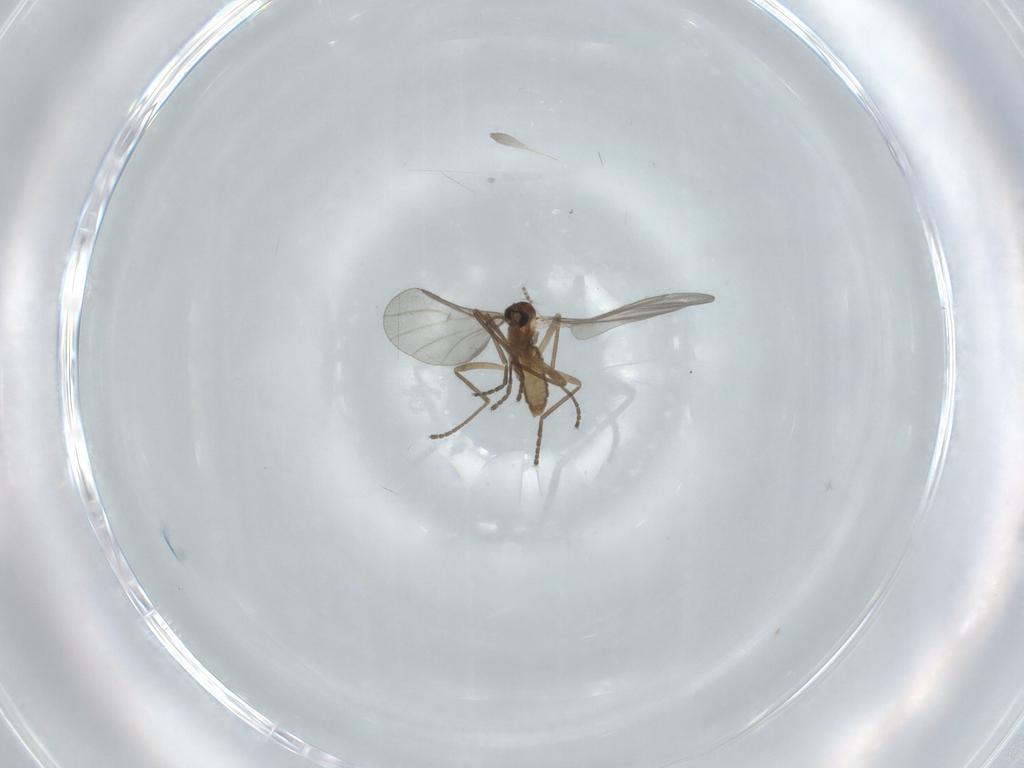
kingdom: Animalia
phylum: Arthropoda
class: Insecta
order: Diptera
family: Cecidomyiidae
